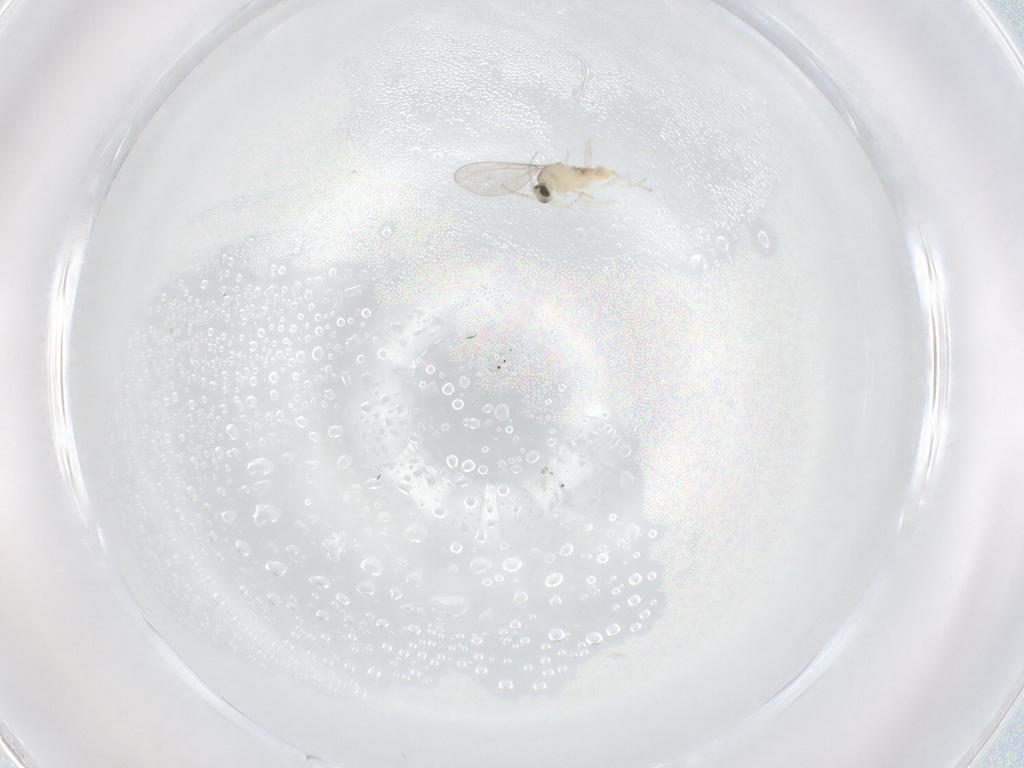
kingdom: Animalia
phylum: Arthropoda
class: Insecta
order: Diptera
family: Cecidomyiidae
